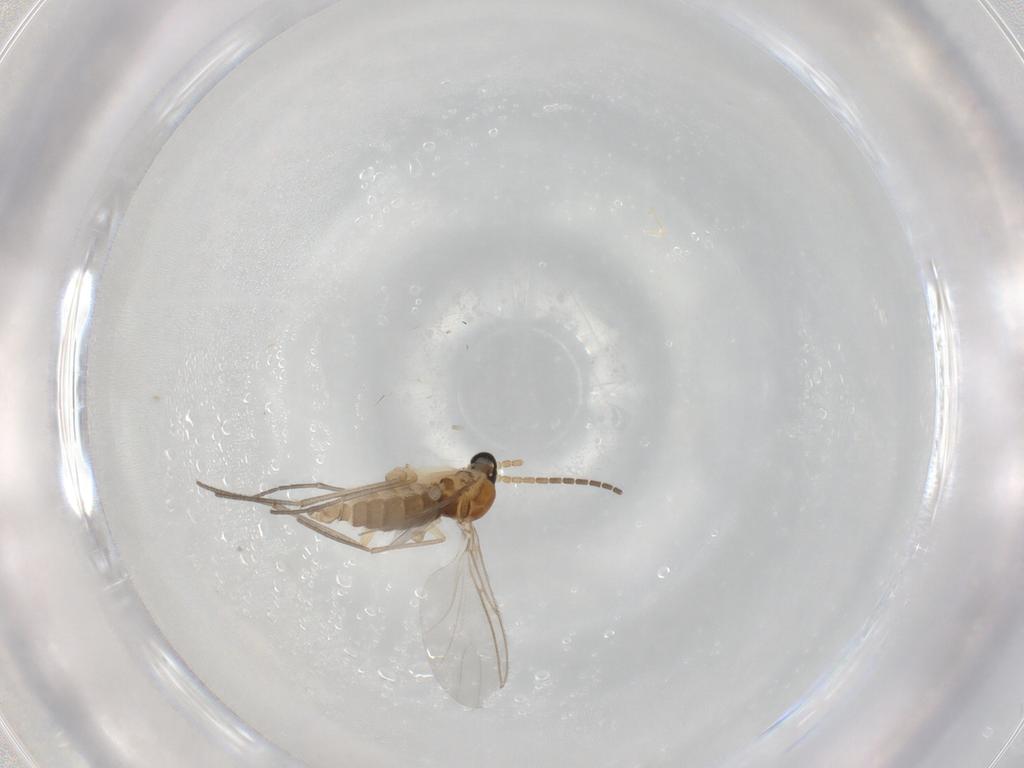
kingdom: Animalia
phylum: Arthropoda
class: Insecta
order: Diptera
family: Sciaridae
